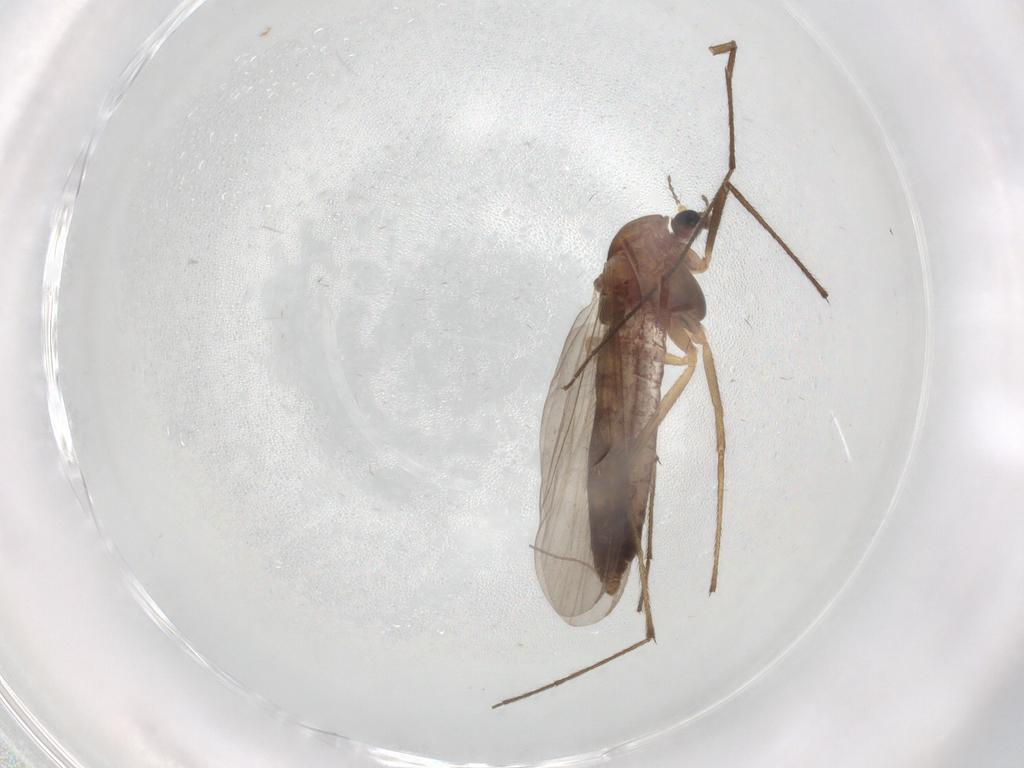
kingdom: Animalia
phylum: Arthropoda
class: Insecta
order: Diptera
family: Chironomidae
